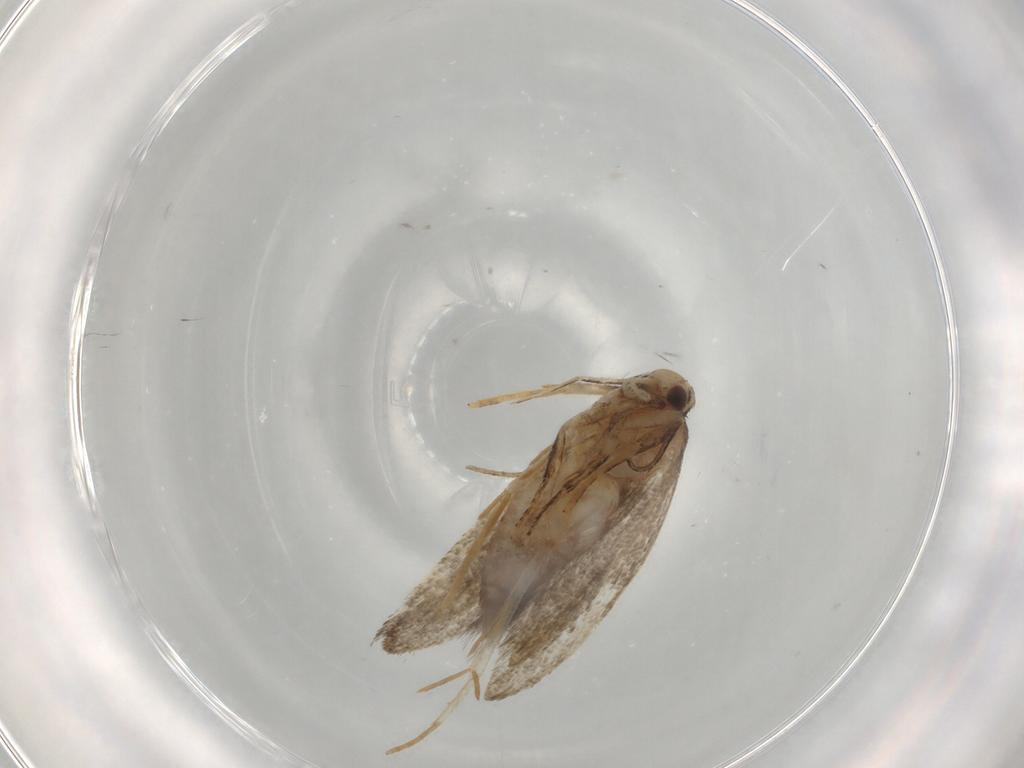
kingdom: Animalia
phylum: Arthropoda
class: Insecta
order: Lepidoptera
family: Cosmopterigidae
